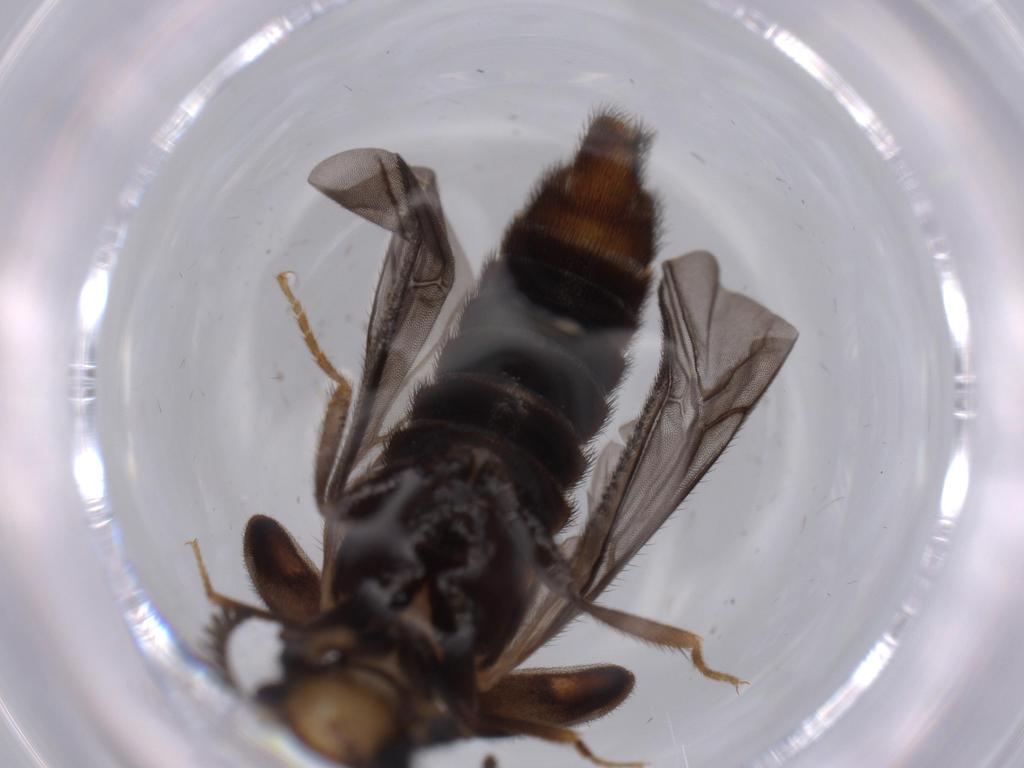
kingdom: Animalia
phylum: Arthropoda
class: Insecta
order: Coleoptera
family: Phengodidae
